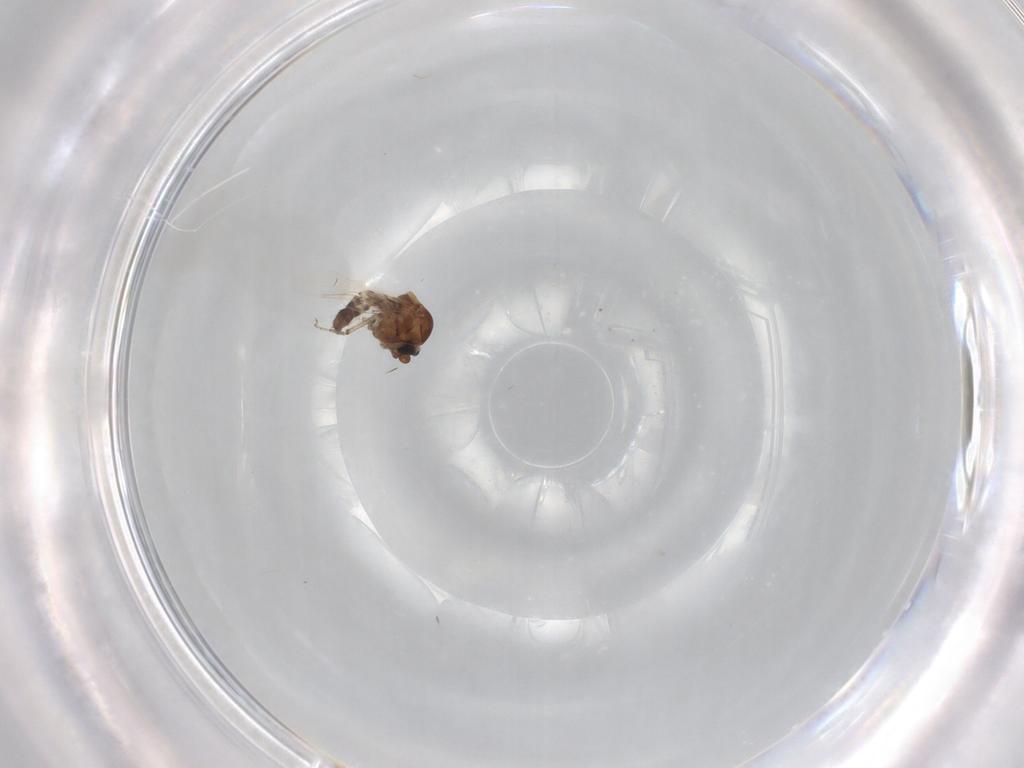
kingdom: Animalia
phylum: Arthropoda
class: Insecta
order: Diptera
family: Ceratopogonidae
